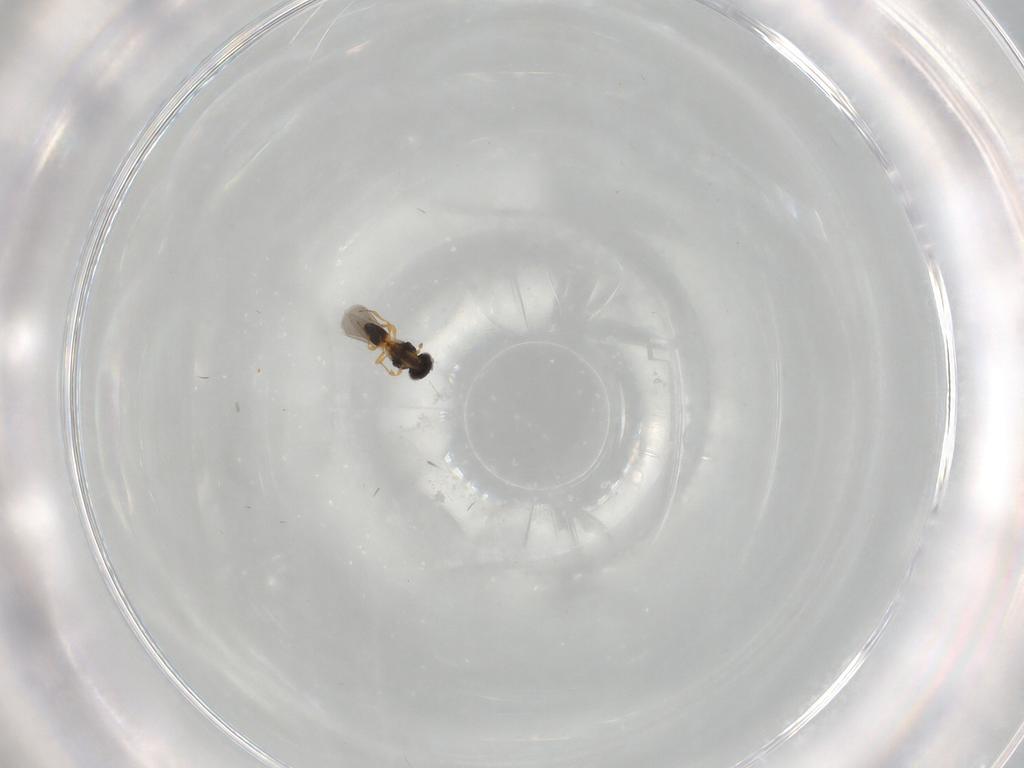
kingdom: Animalia
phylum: Arthropoda
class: Insecta
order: Hymenoptera
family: Platygastridae
